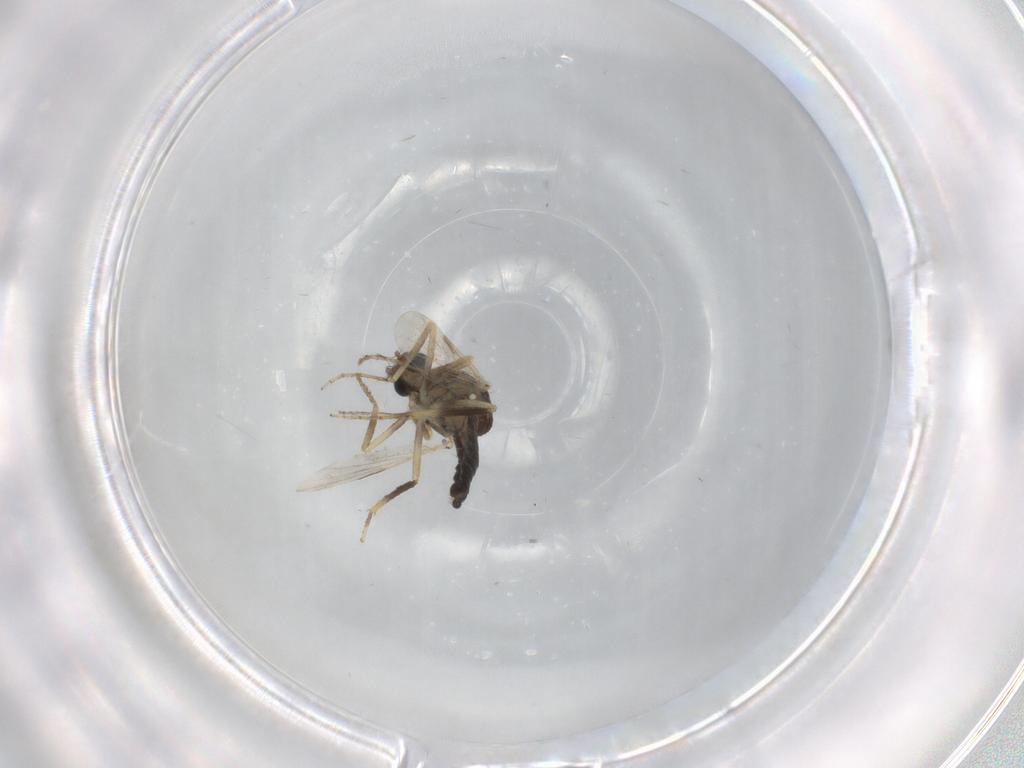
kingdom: Animalia
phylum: Arthropoda
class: Insecta
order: Diptera
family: Ceratopogonidae
